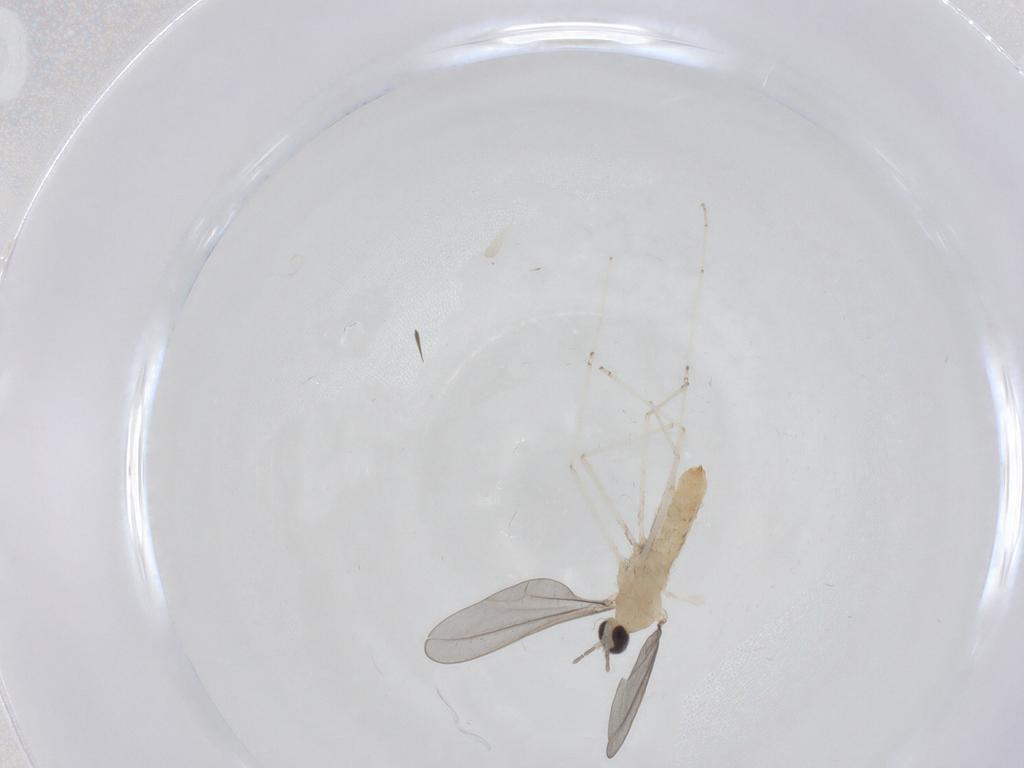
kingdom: Animalia
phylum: Arthropoda
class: Insecta
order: Diptera
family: Cecidomyiidae
